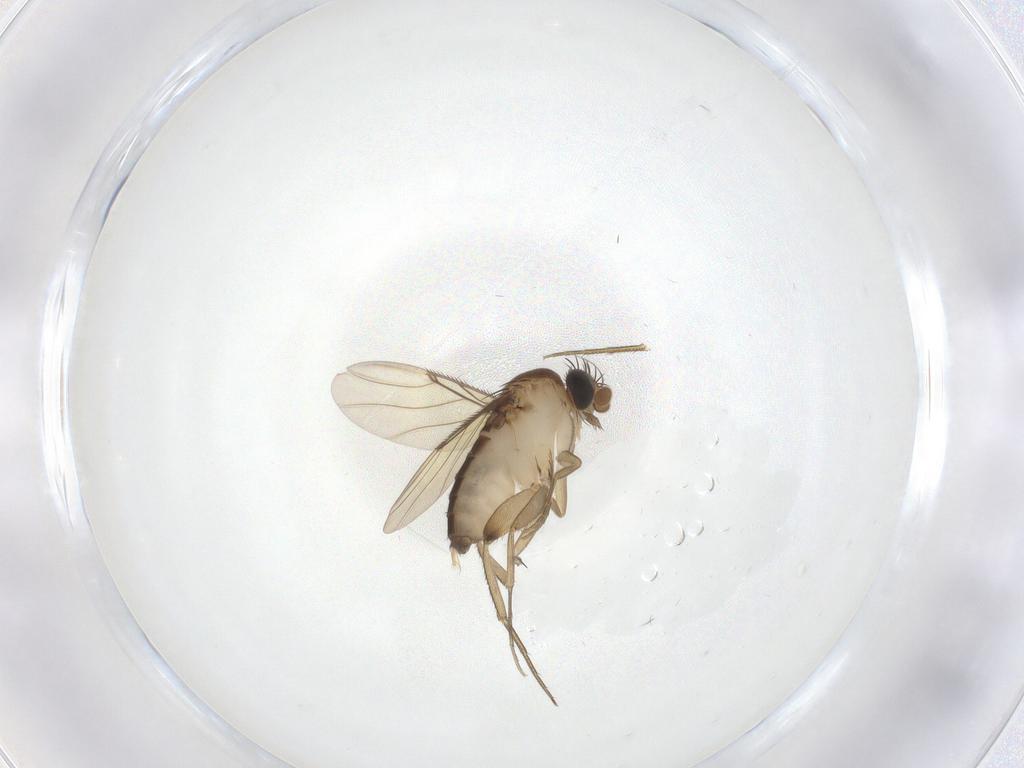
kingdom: Animalia
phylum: Arthropoda
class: Insecta
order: Diptera
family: Phoridae
